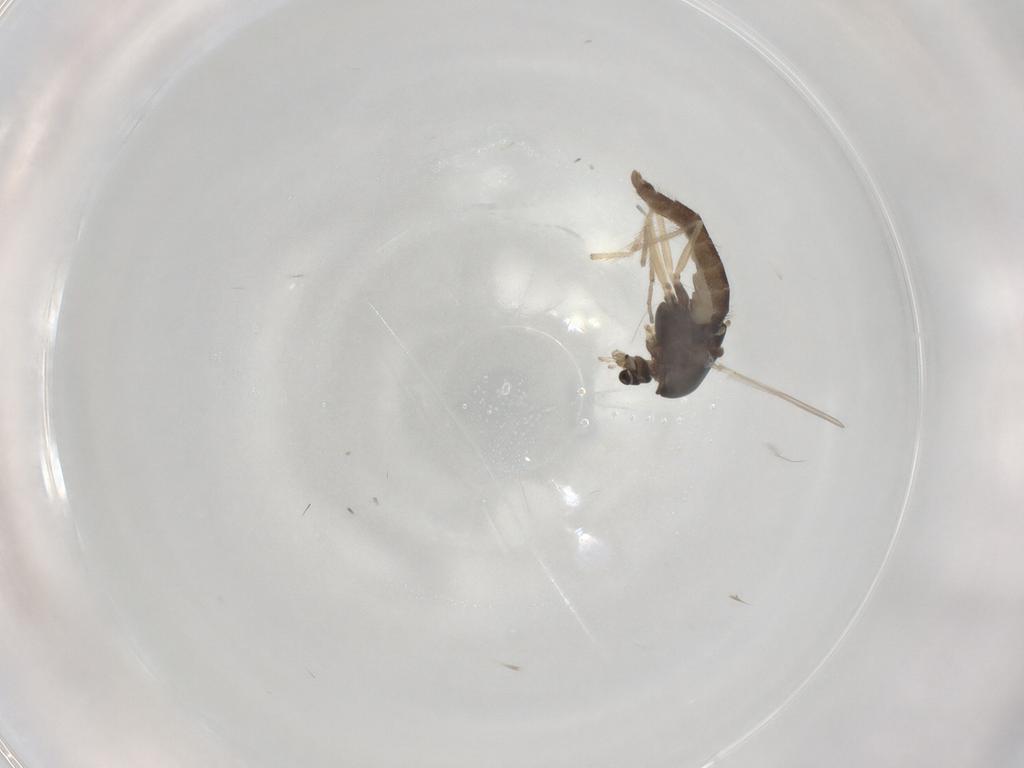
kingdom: Animalia
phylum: Arthropoda
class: Insecta
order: Diptera
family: Chironomidae
